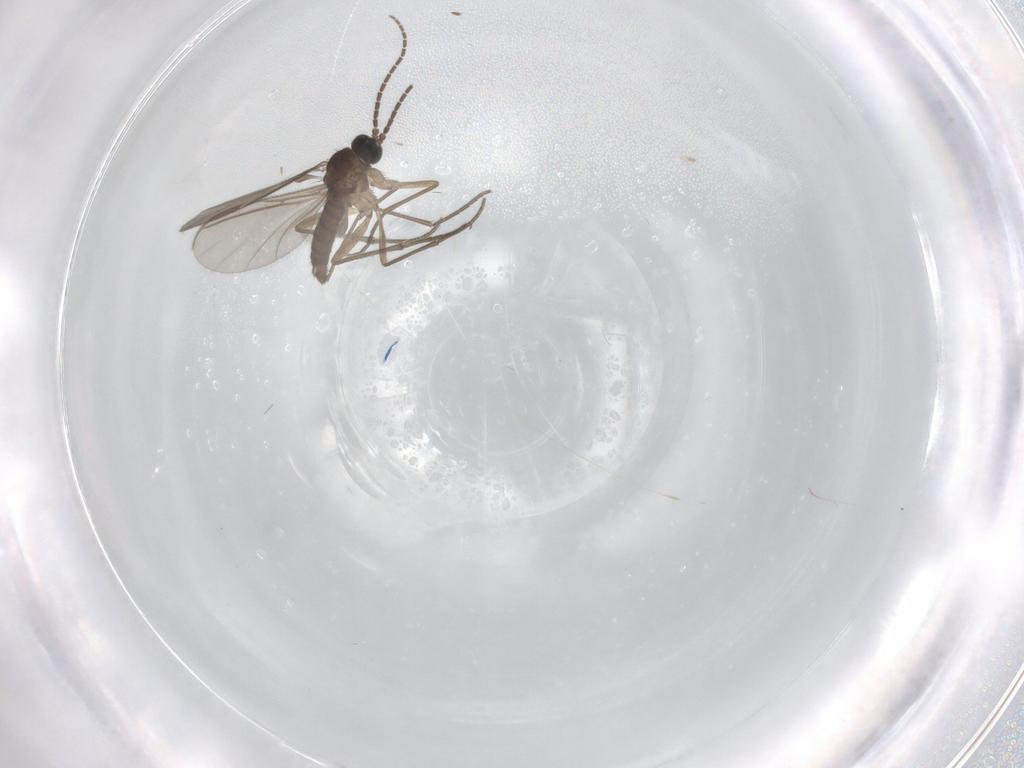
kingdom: Animalia
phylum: Arthropoda
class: Insecta
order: Diptera
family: Sciaridae
